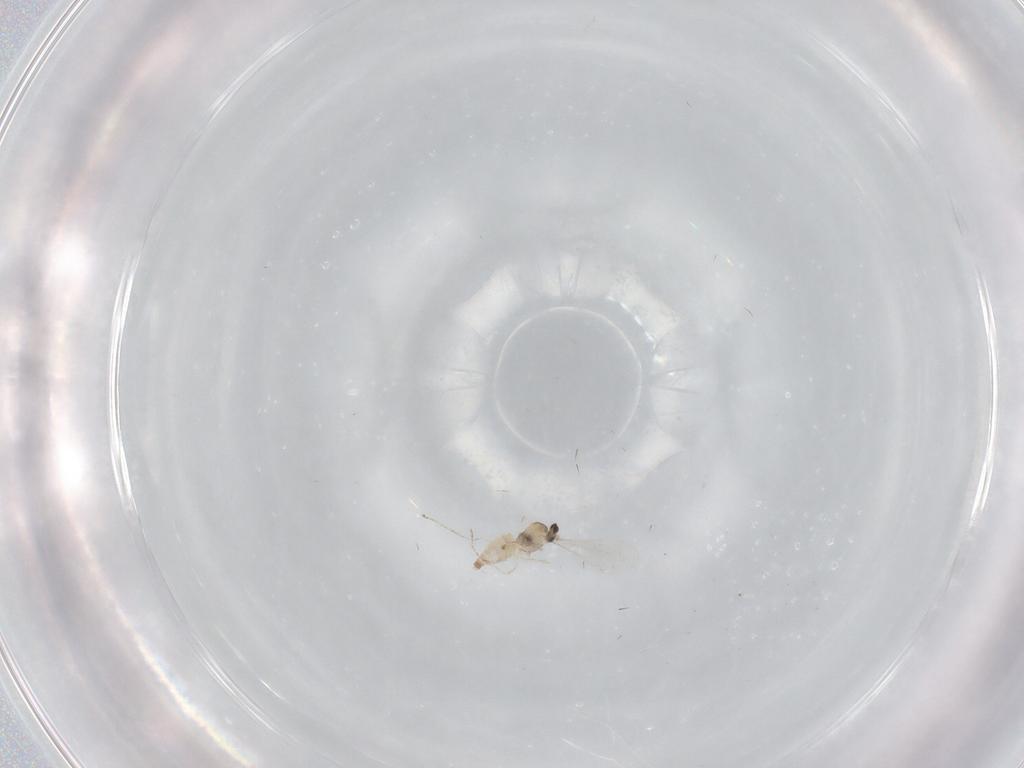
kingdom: Animalia
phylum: Arthropoda
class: Insecta
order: Diptera
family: Cecidomyiidae
